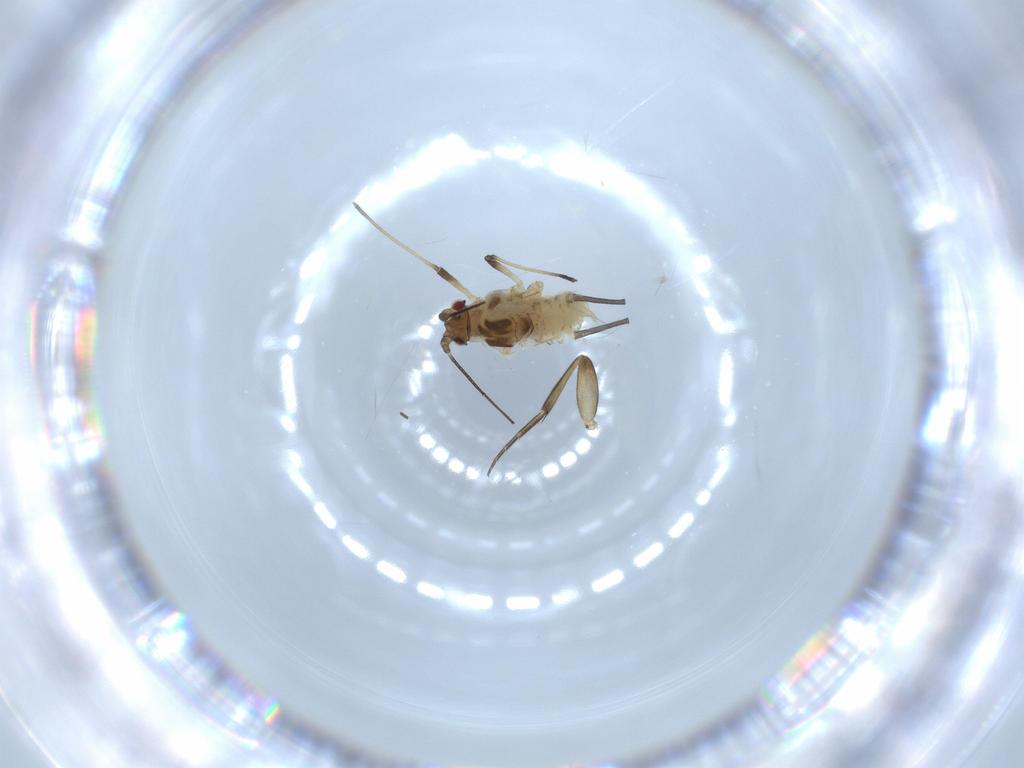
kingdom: Animalia
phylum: Arthropoda
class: Insecta
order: Hemiptera
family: Aphididae
